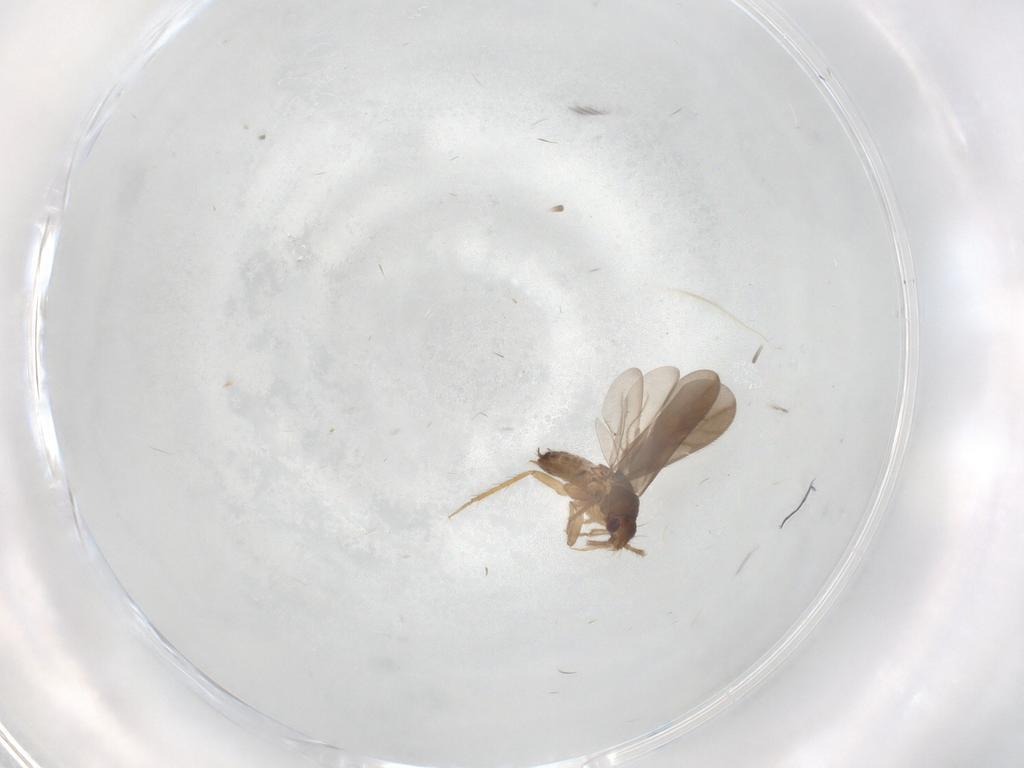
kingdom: Animalia
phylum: Arthropoda
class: Insecta
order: Hemiptera
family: Ceratocombidae
